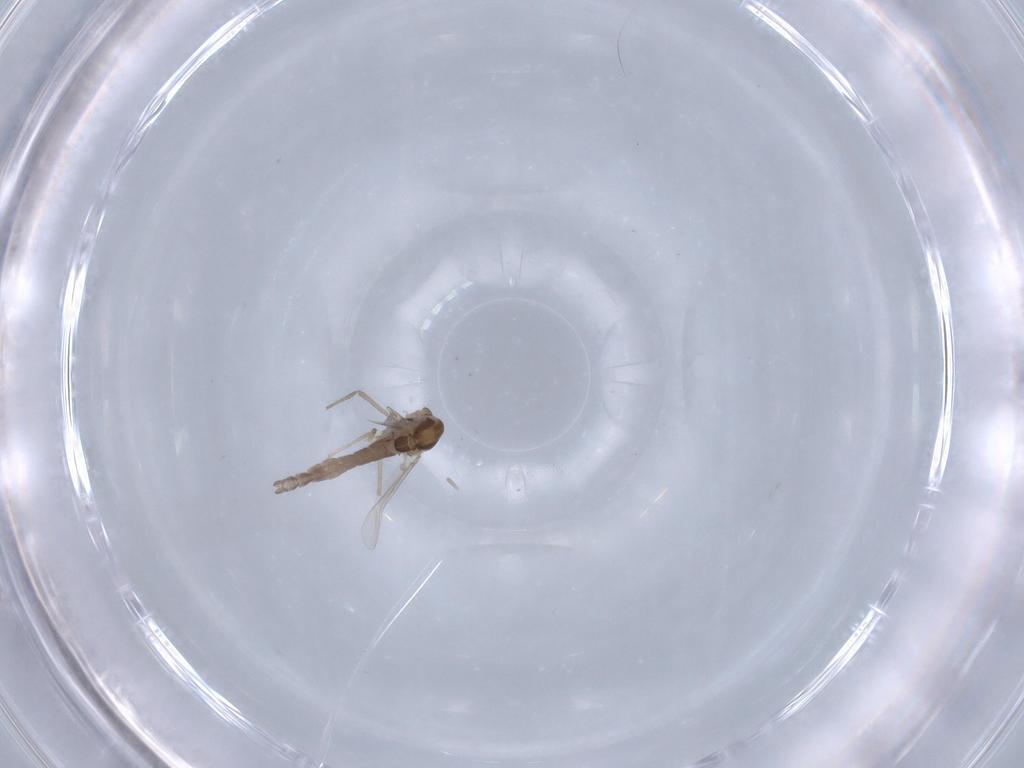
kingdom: Animalia
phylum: Arthropoda
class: Insecta
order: Diptera
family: Chironomidae
